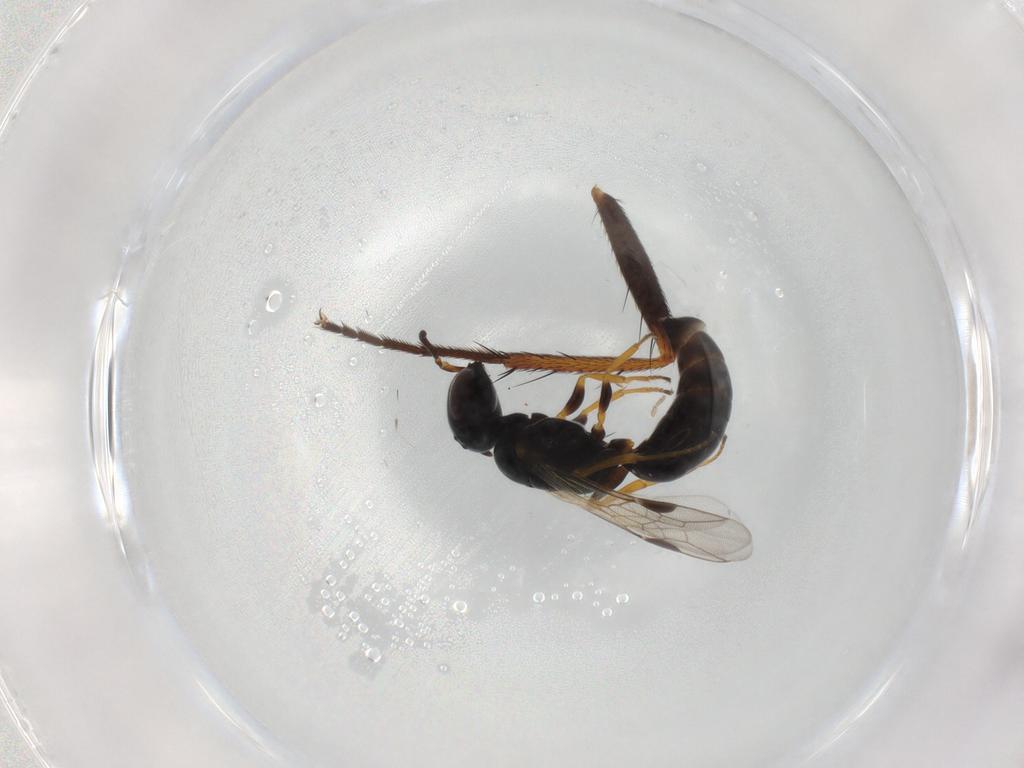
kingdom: Animalia
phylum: Arthropoda
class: Insecta
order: Hymenoptera
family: Pemphredonidae
